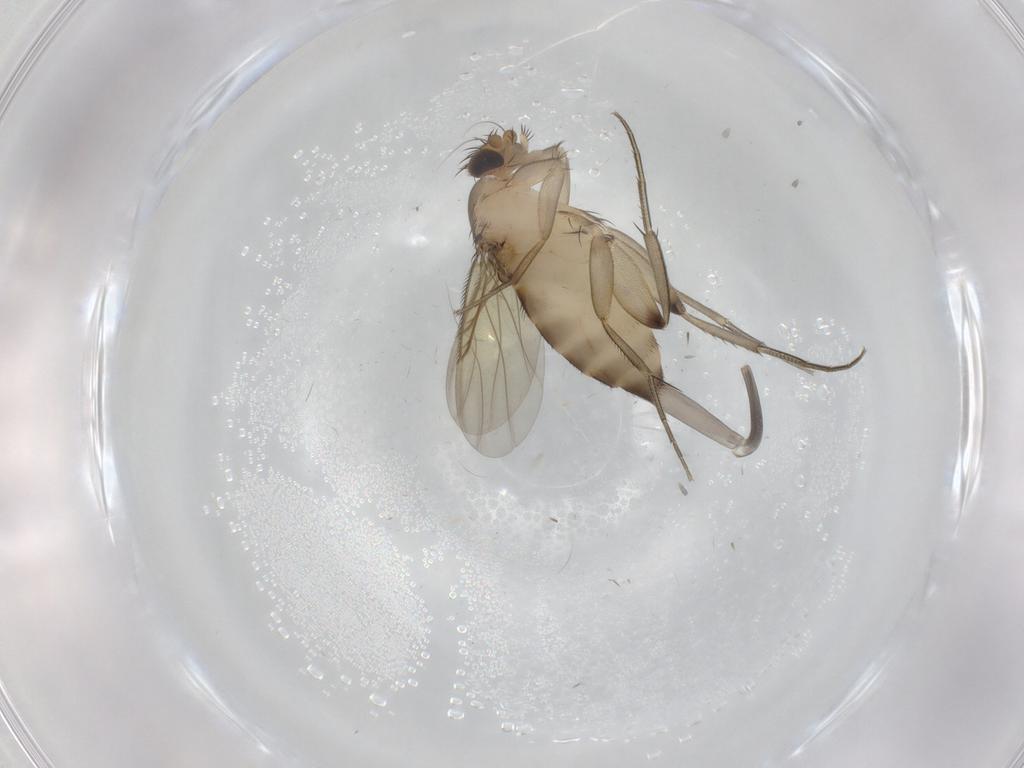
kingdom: Animalia
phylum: Arthropoda
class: Insecta
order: Diptera
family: Phoridae
